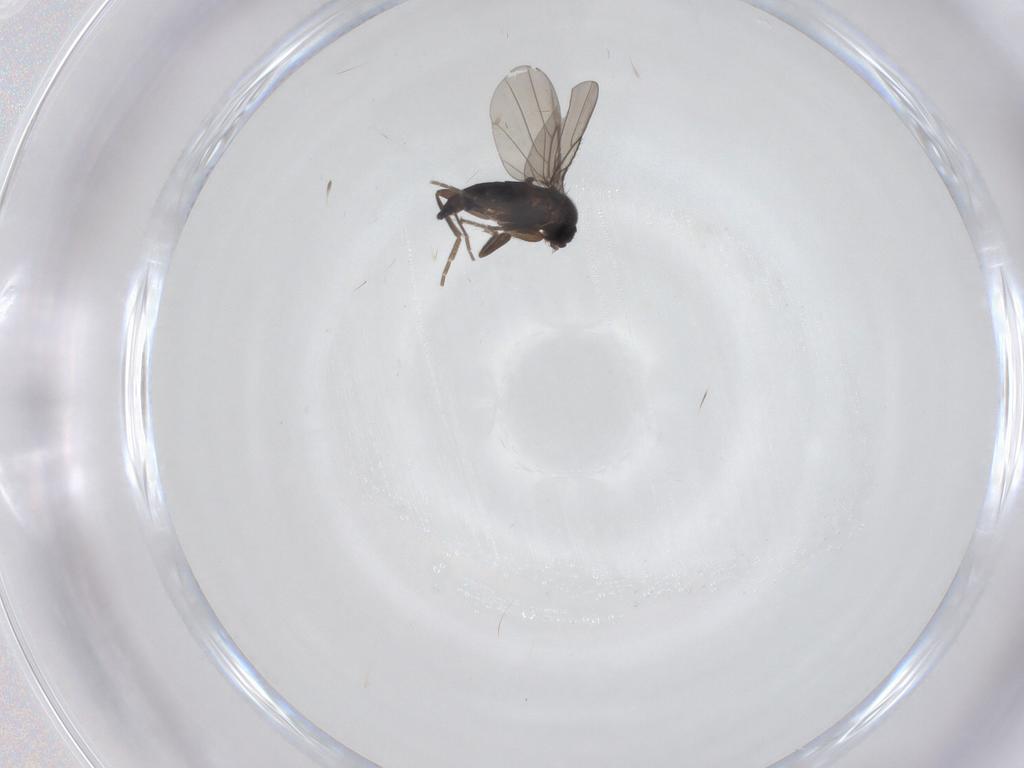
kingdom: Animalia
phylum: Arthropoda
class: Insecta
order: Diptera
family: Phoridae
